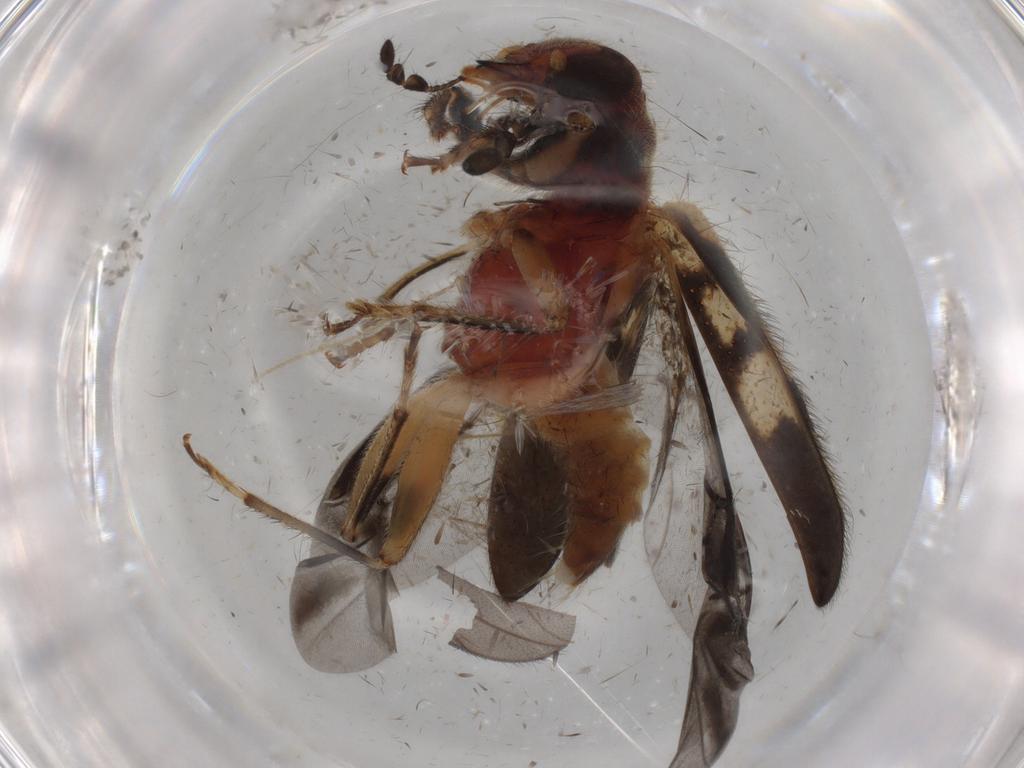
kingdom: Animalia
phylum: Arthropoda
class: Insecta
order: Coleoptera
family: Cleridae
